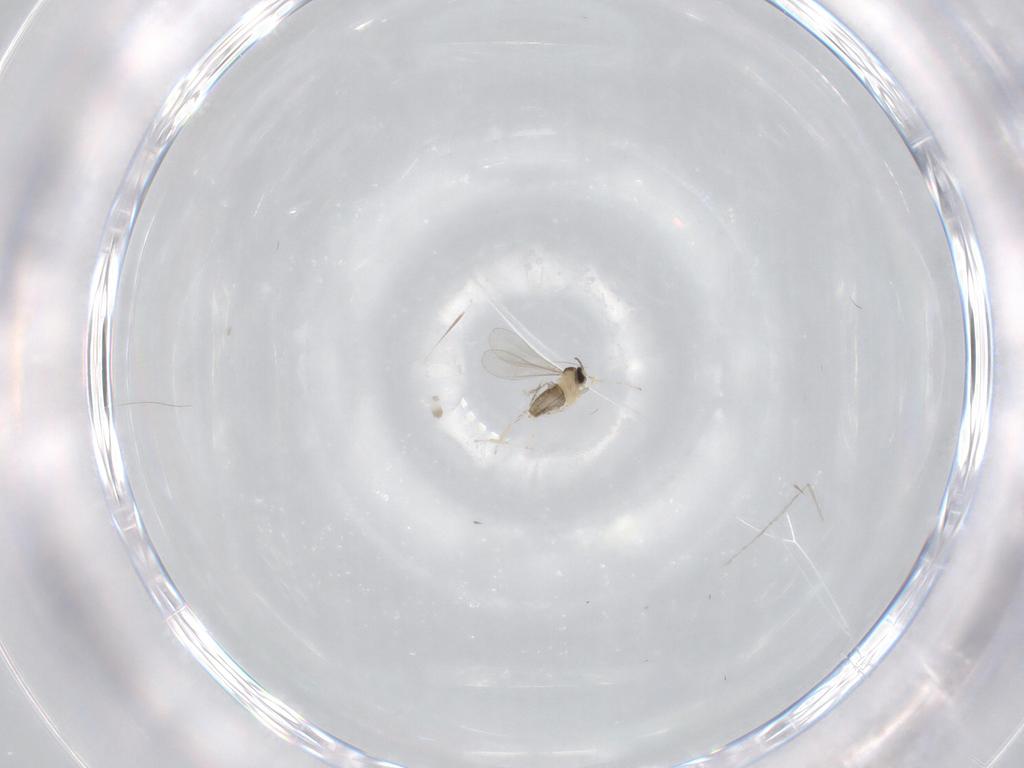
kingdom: Animalia
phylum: Arthropoda
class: Insecta
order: Diptera
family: Cecidomyiidae
